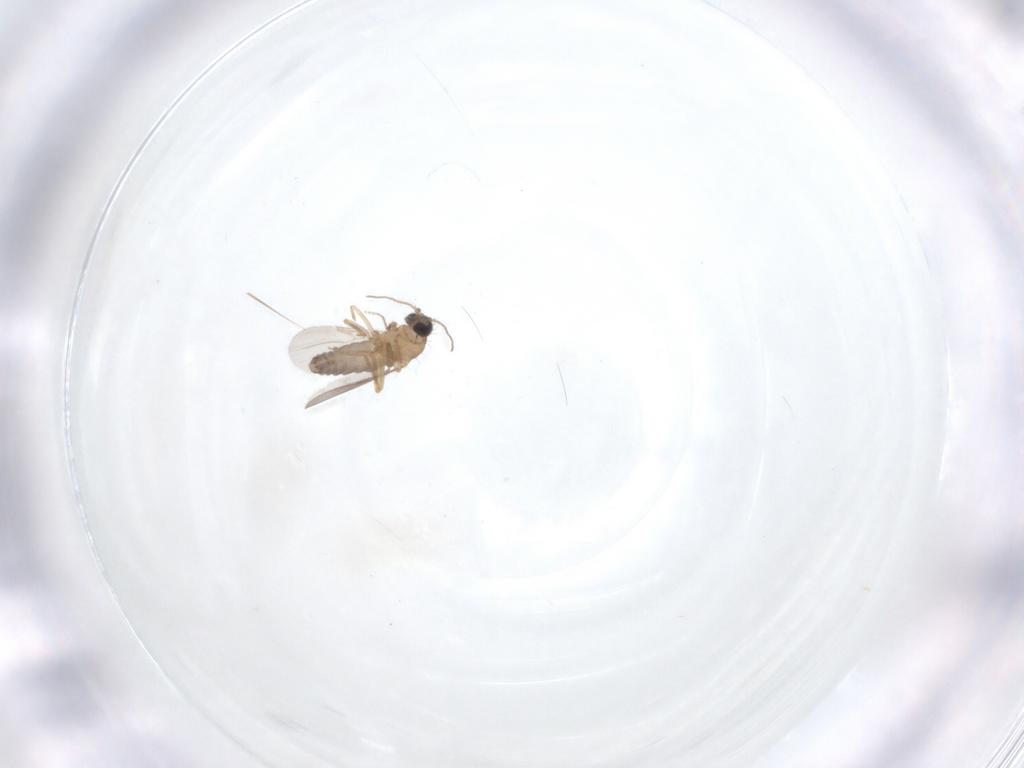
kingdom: Animalia
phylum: Arthropoda
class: Insecta
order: Diptera
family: Ceratopogonidae
